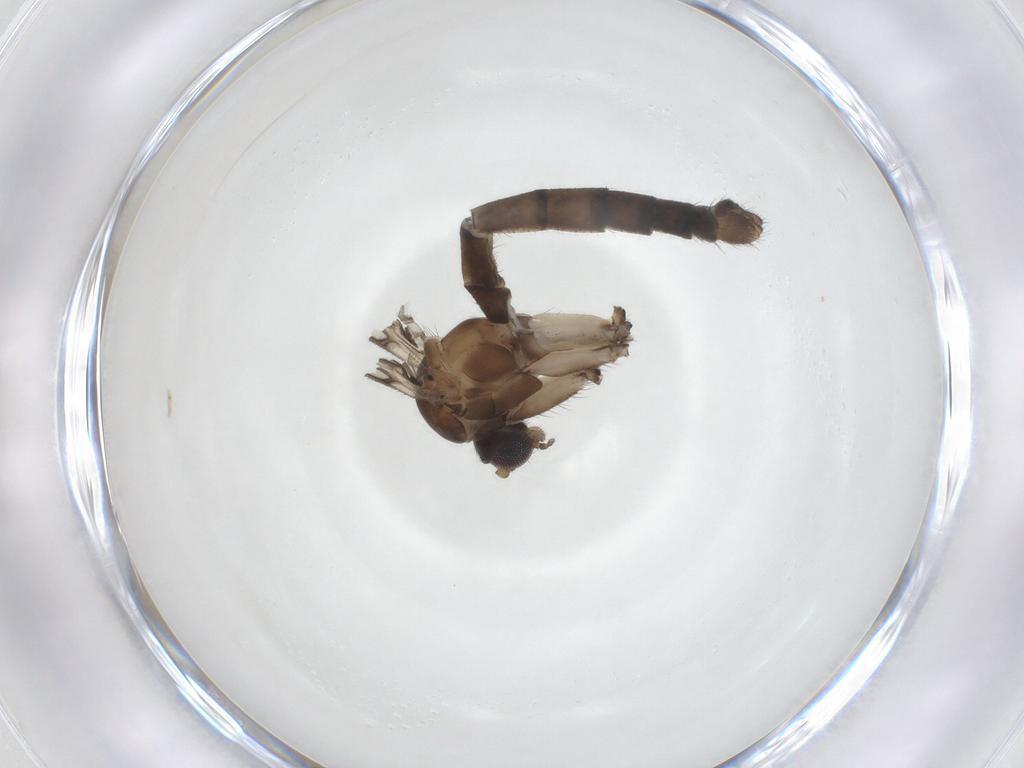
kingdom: Animalia
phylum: Arthropoda
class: Insecta
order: Diptera
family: Mycetophilidae
